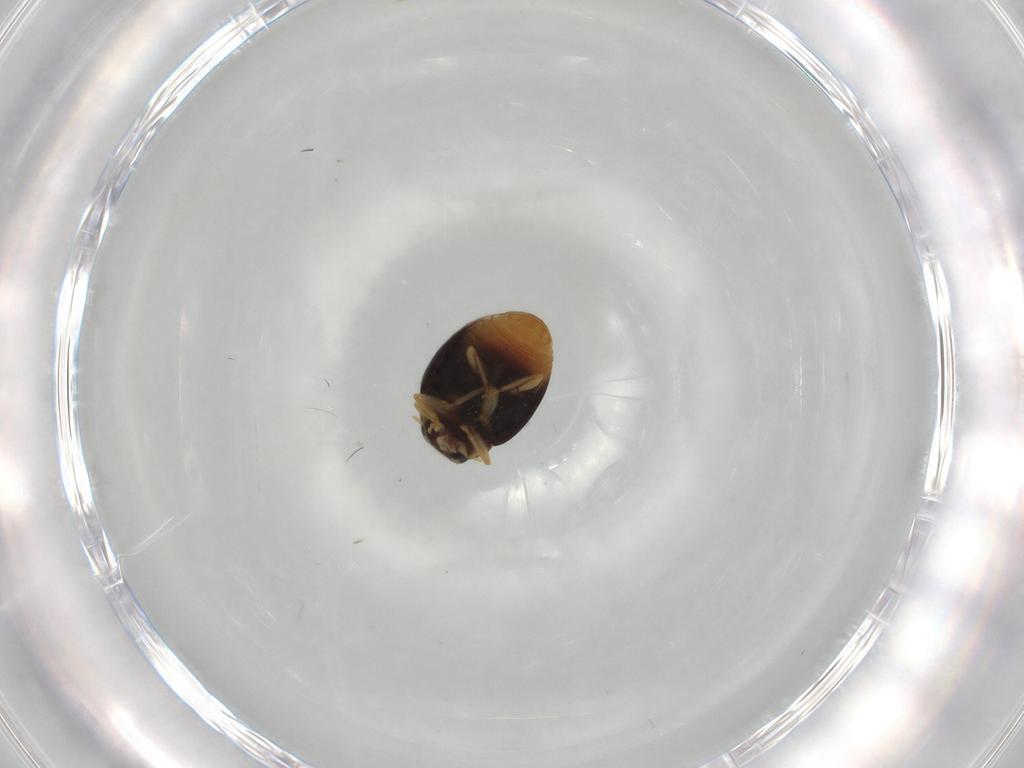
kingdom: Animalia
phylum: Arthropoda
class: Insecta
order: Coleoptera
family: Coccinellidae
